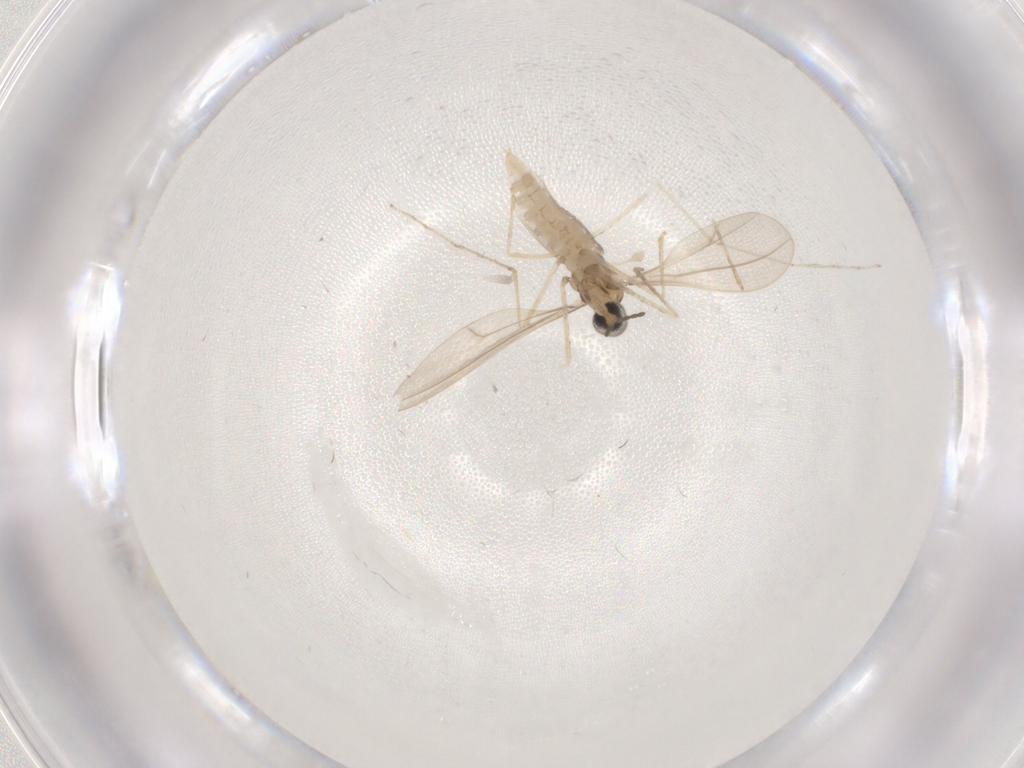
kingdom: Animalia
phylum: Arthropoda
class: Insecta
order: Diptera
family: Cecidomyiidae
